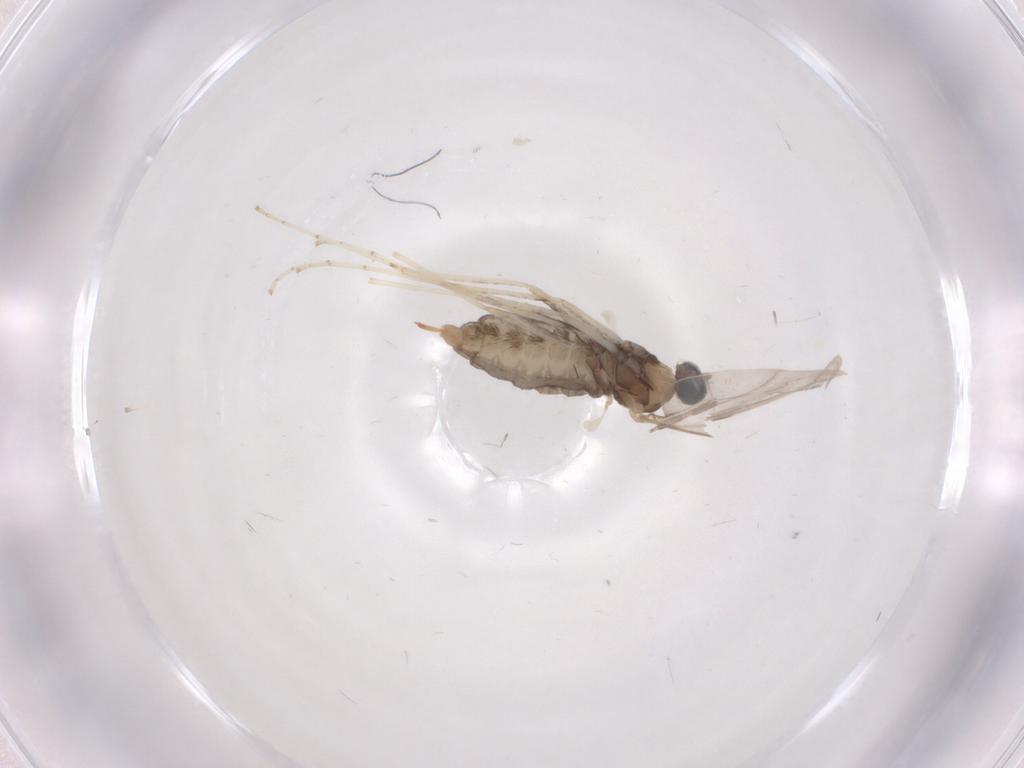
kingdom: Animalia
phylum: Arthropoda
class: Insecta
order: Diptera
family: Cecidomyiidae
